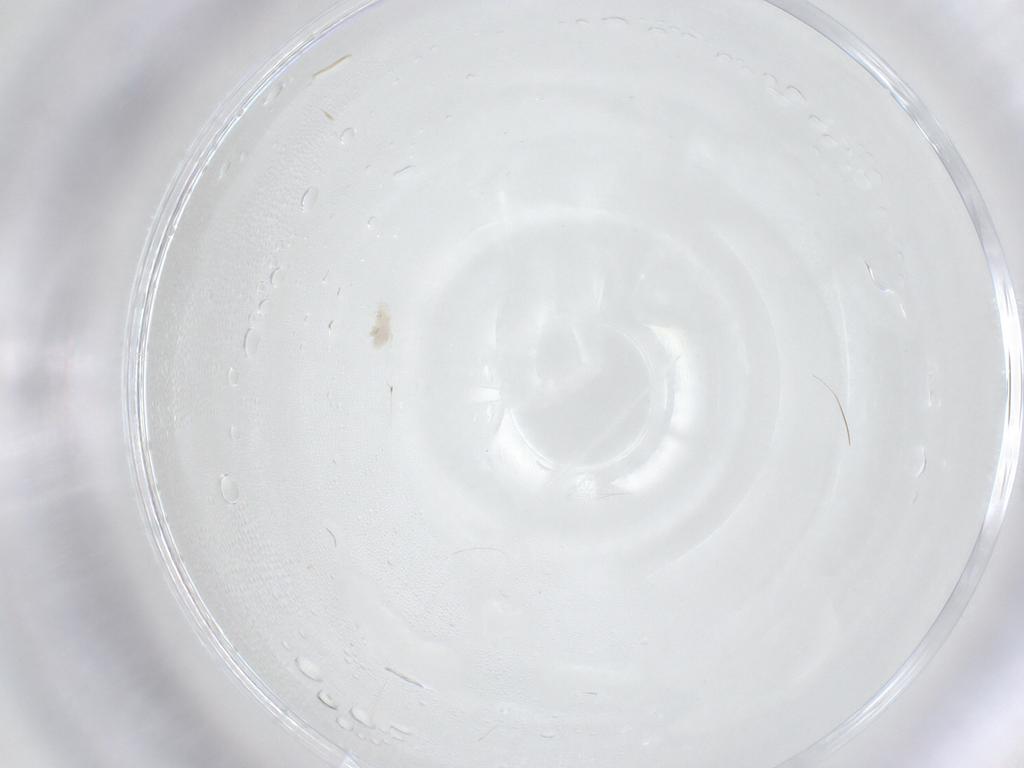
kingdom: Animalia
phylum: Arthropoda
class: Arachnida
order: Mesostigmata
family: Melicharidae
